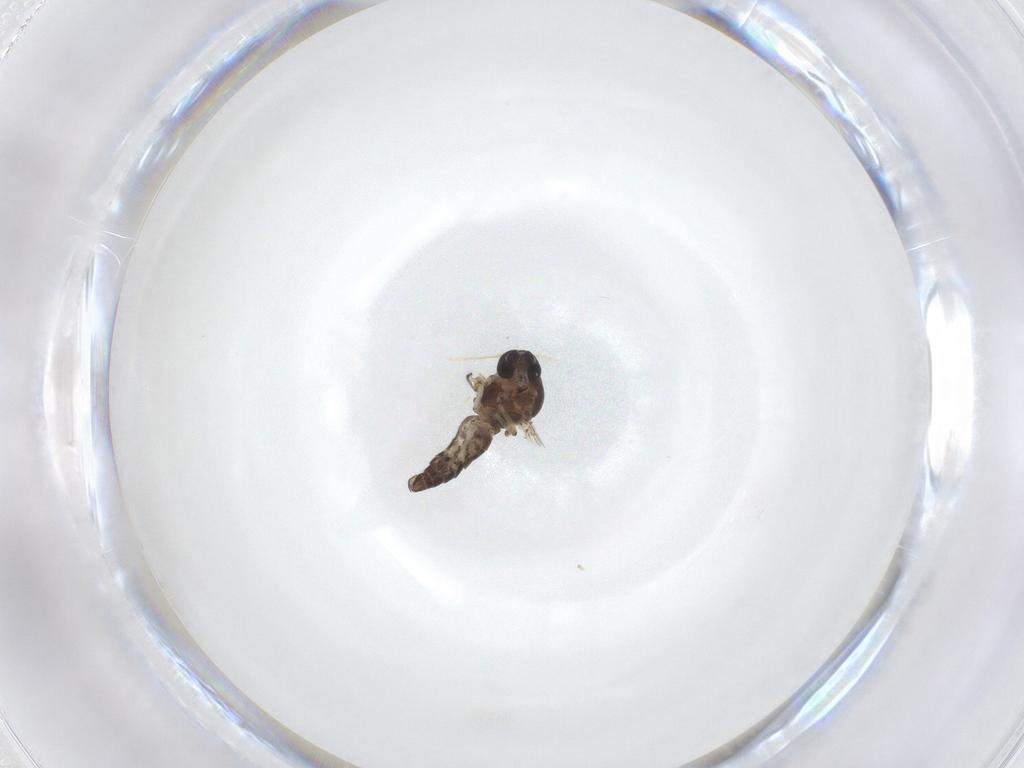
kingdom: Animalia
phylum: Arthropoda
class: Insecta
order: Diptera
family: Ceratopogonidae
